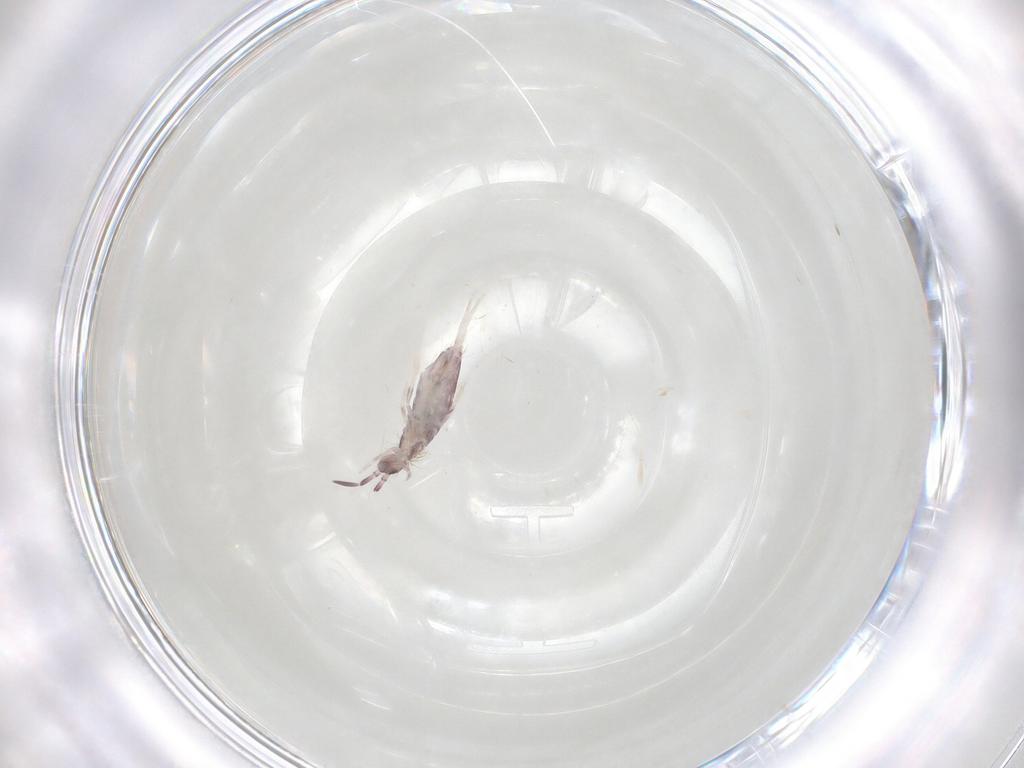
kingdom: Animalia
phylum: Arthropoda
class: Collembola
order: Poduromorpha
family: Hypogastruridae
